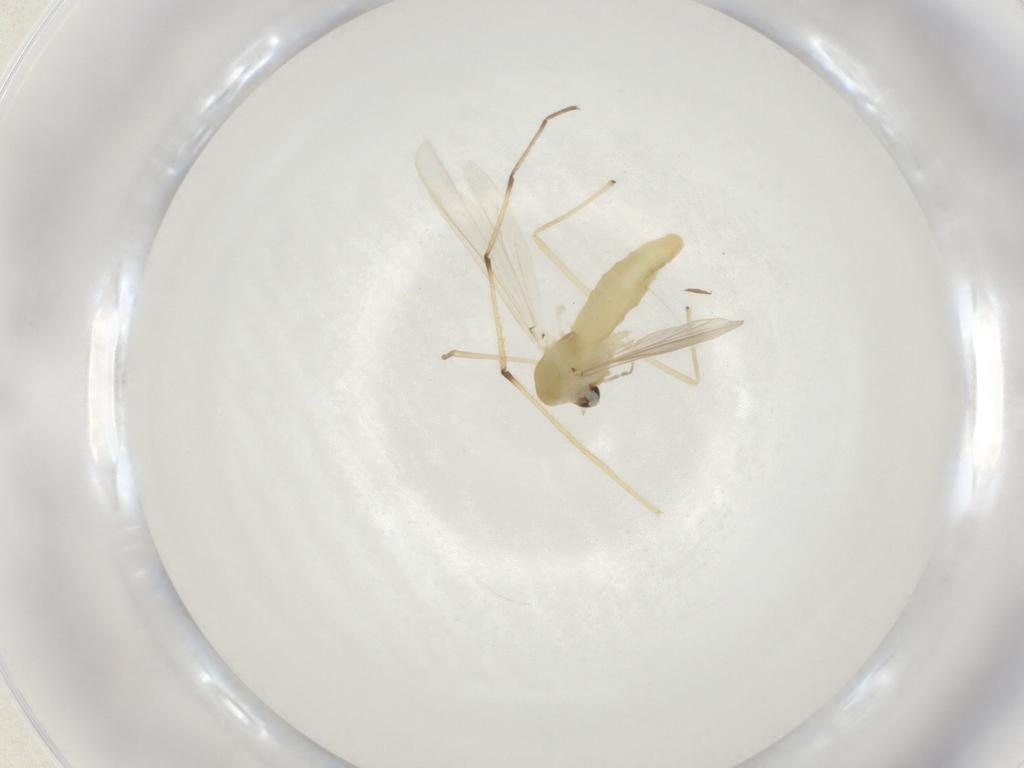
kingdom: Animalia
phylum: Arthropoda
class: Insecta
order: Diptera
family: Chironomidae
